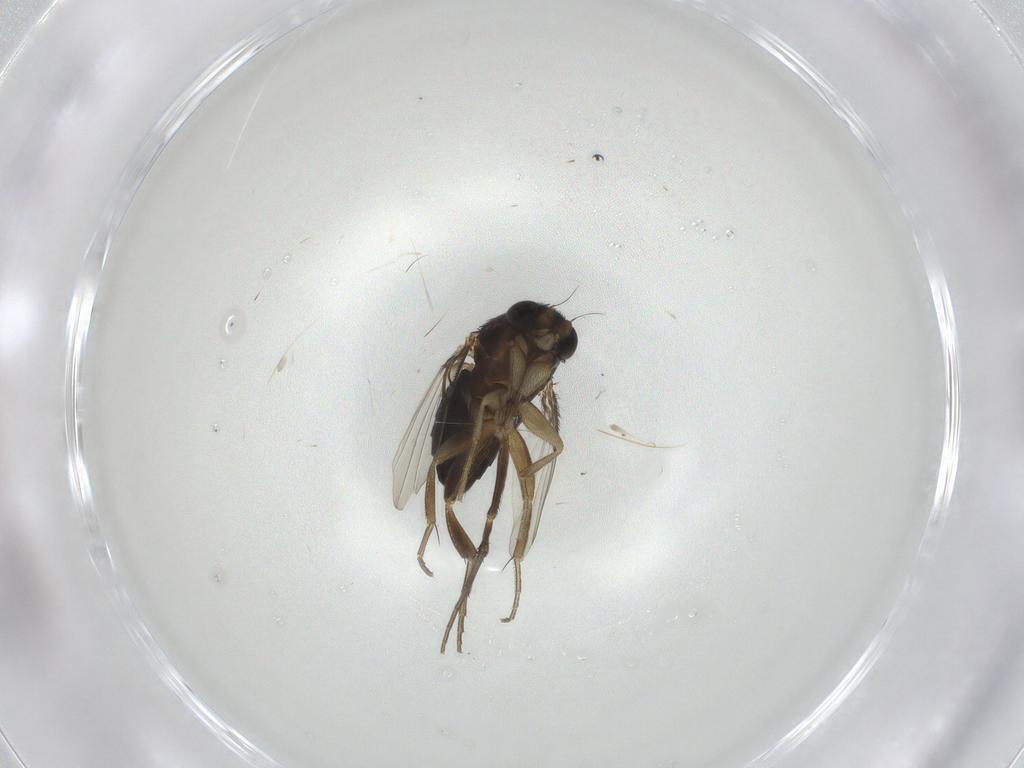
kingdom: Animalia
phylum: Arthropoda
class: Insecta
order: Diptera
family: Phoridae
